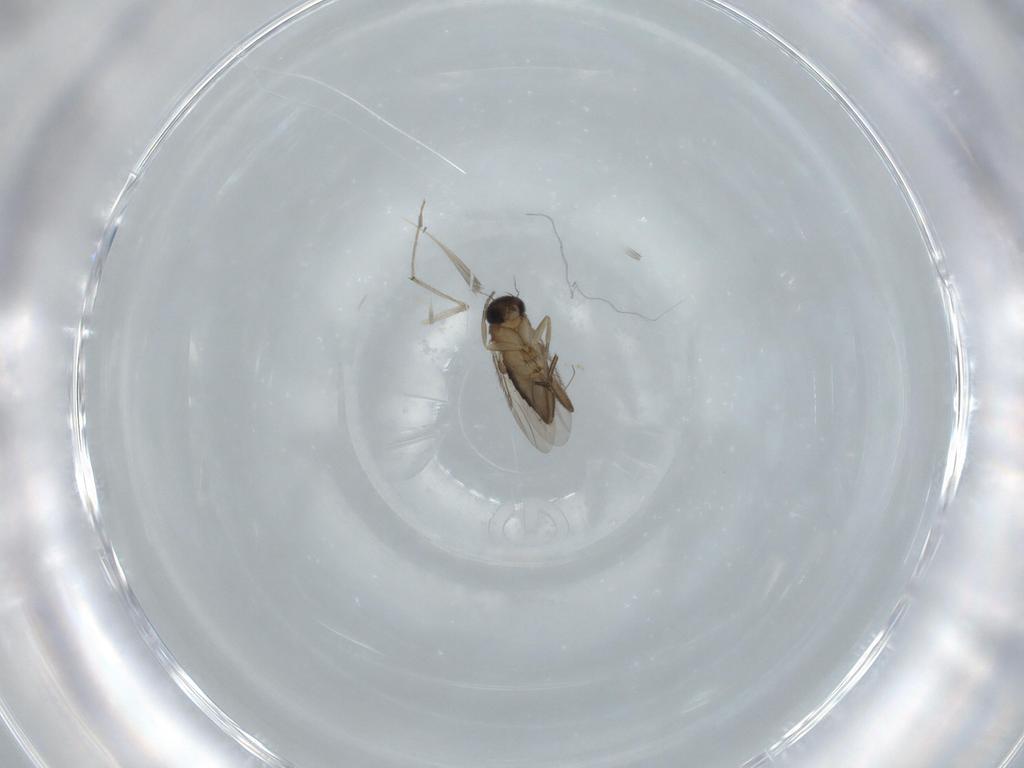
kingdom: Animalia
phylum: Arthropoda
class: Insecta
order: Diptera
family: Phoridae
